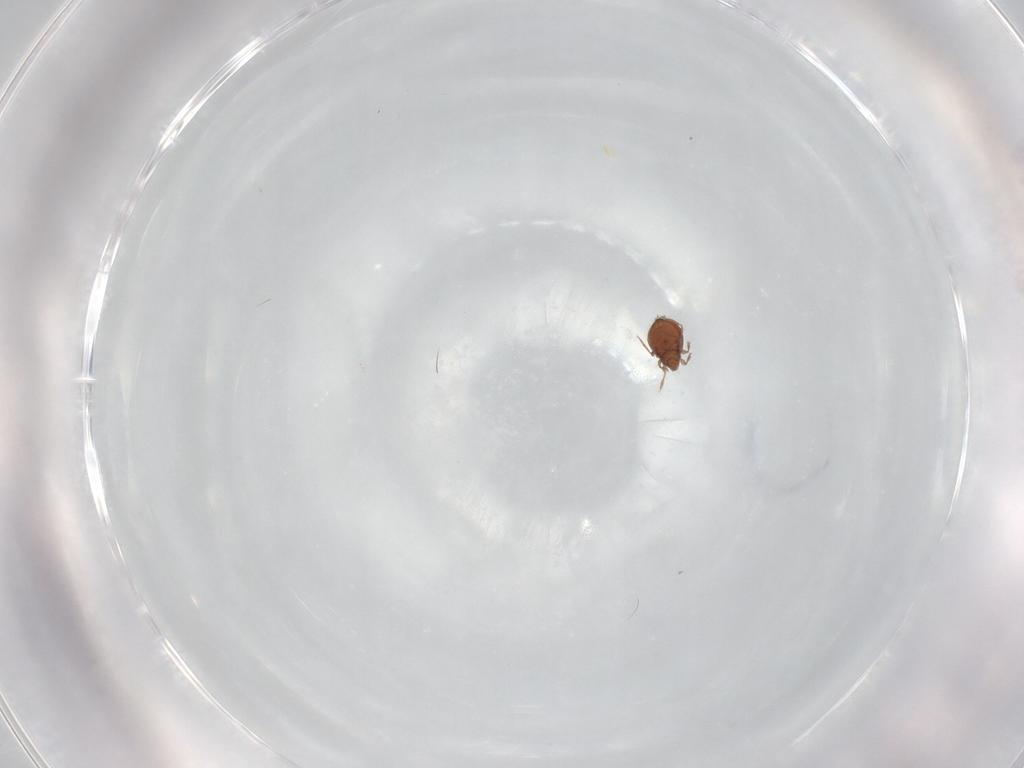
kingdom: Animalia
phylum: Arthropoda
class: Arachnida
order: Sarcoptiformes
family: Oribatulidae
